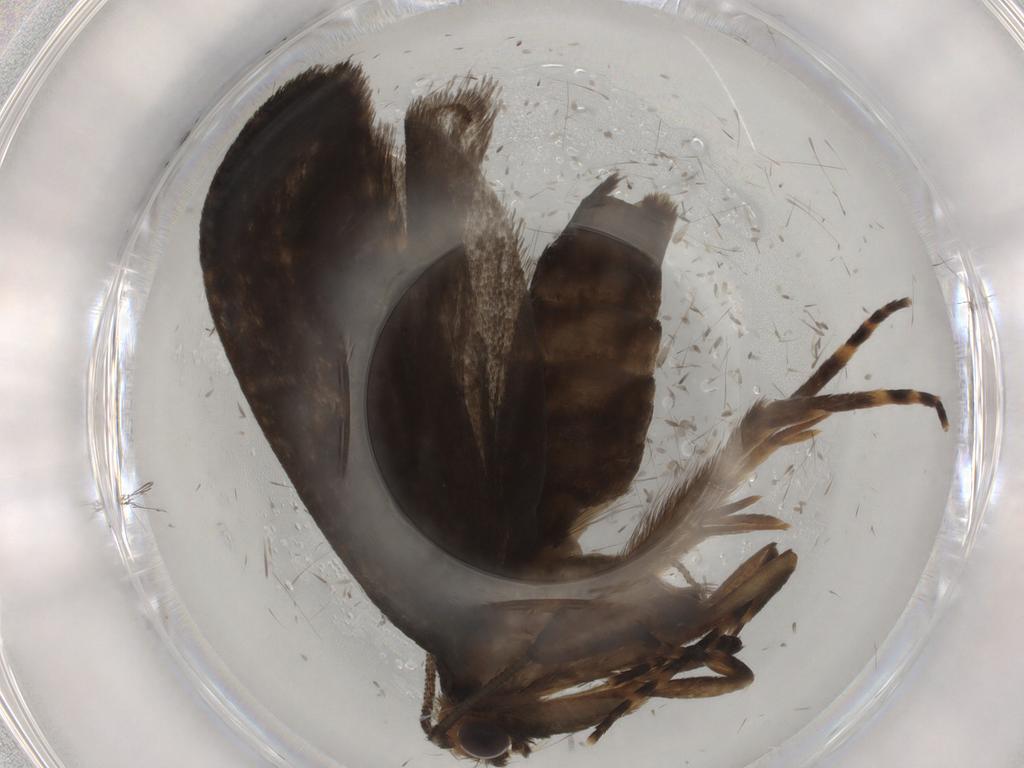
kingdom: Animalia
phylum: Arthropoda
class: Insecta
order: Lepidoptera
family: Tineidae
